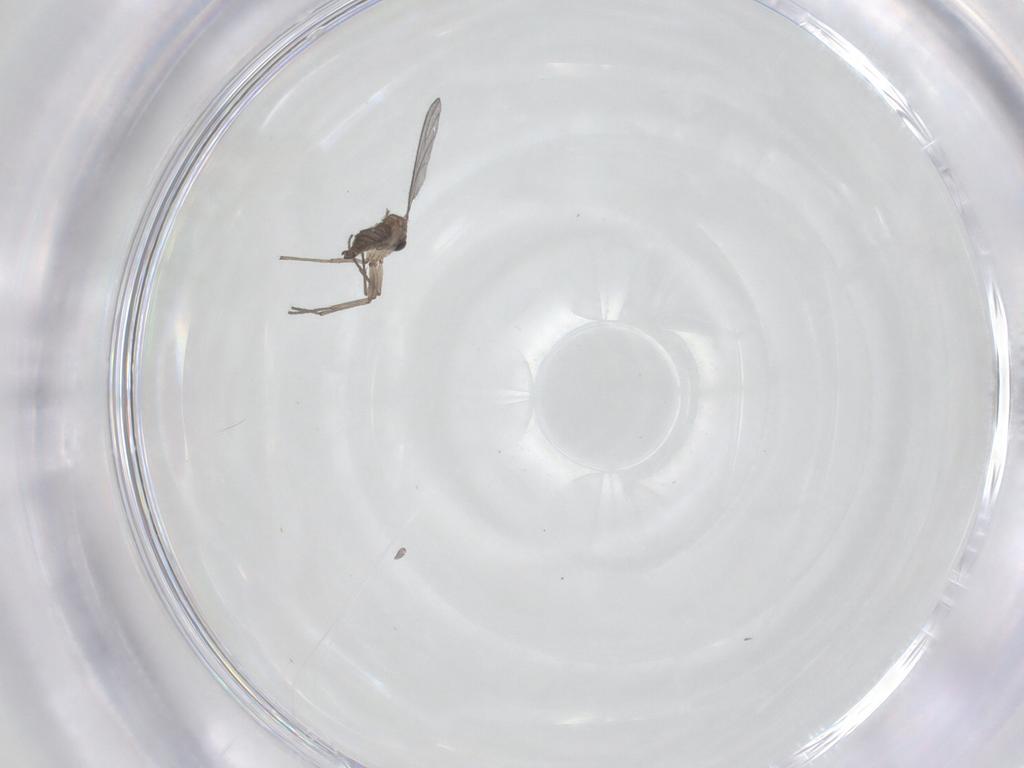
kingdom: Animalia
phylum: Arthropoda
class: Insecta
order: Diptera
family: Sciaridae
